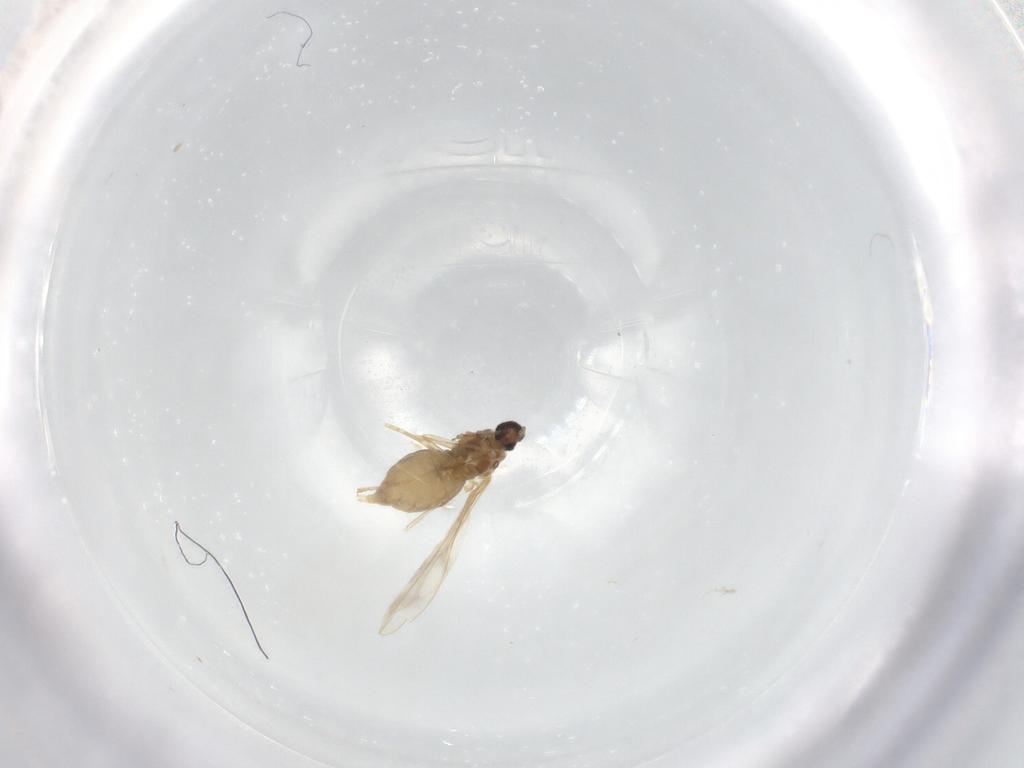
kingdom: Animalia
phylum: Arthropoda
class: Insecta
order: Diptera
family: Cecidomyiidae
